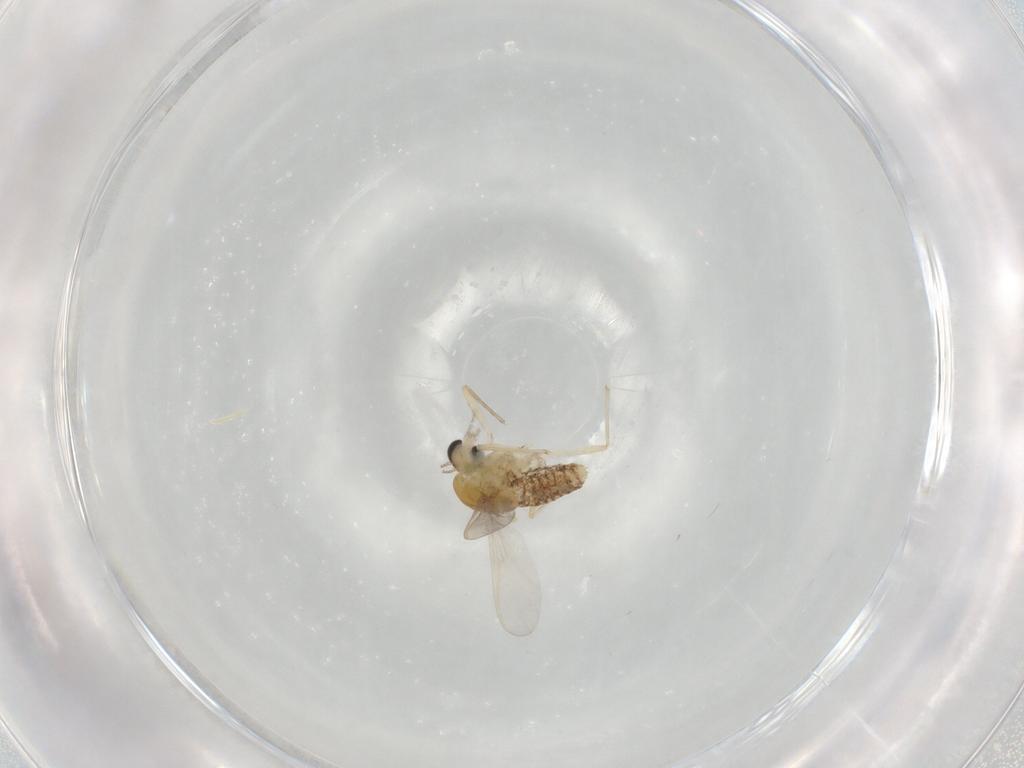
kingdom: Animalia
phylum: Arthropoda
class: Insecta
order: Diptera
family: Chironomidae
